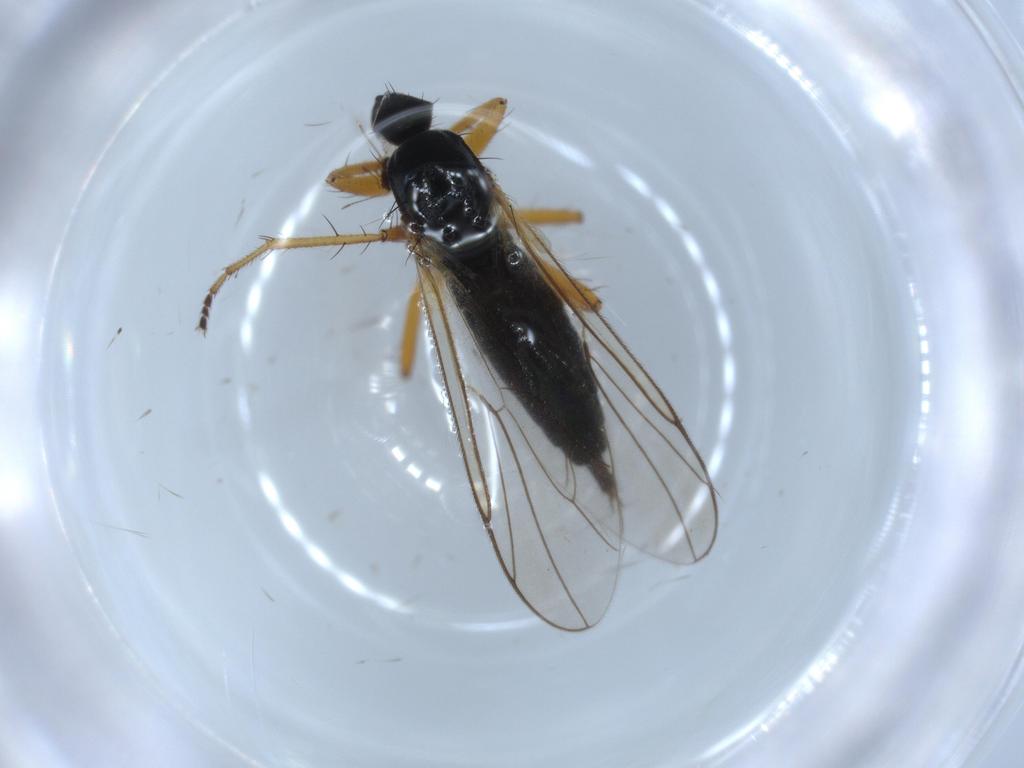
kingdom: Animalia
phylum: Arthropoda
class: Insecta
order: Diptera
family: Hybotidae
